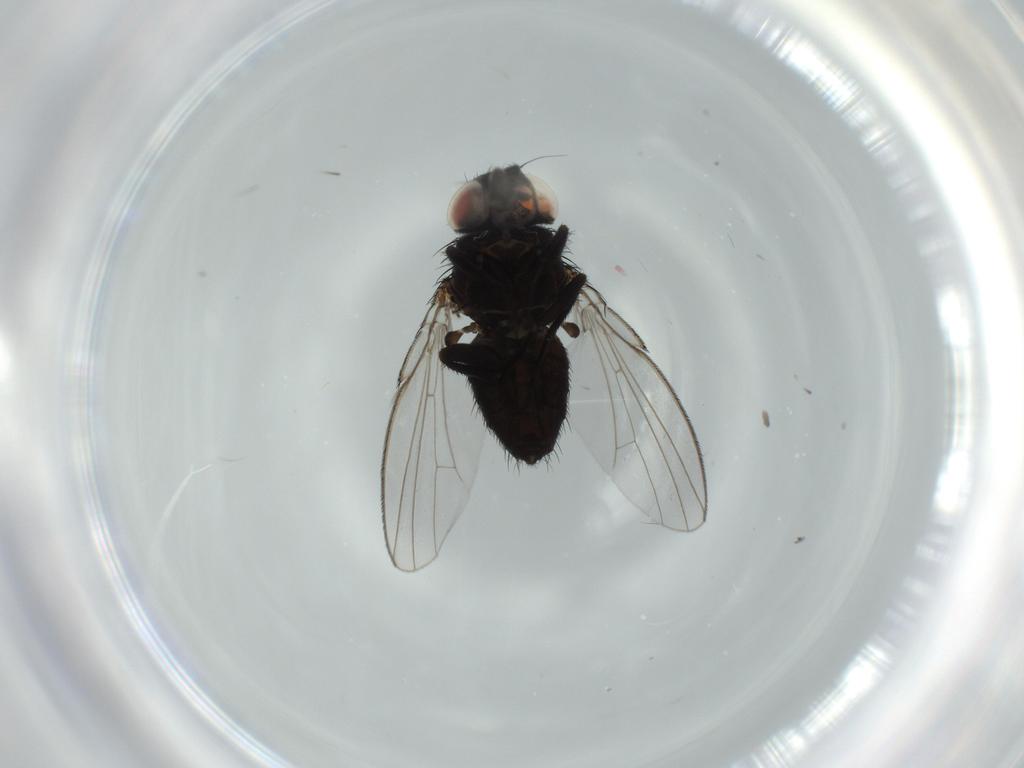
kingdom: Animalia
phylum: Arthropoda
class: Insecta
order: Diptera
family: Milichiidae
